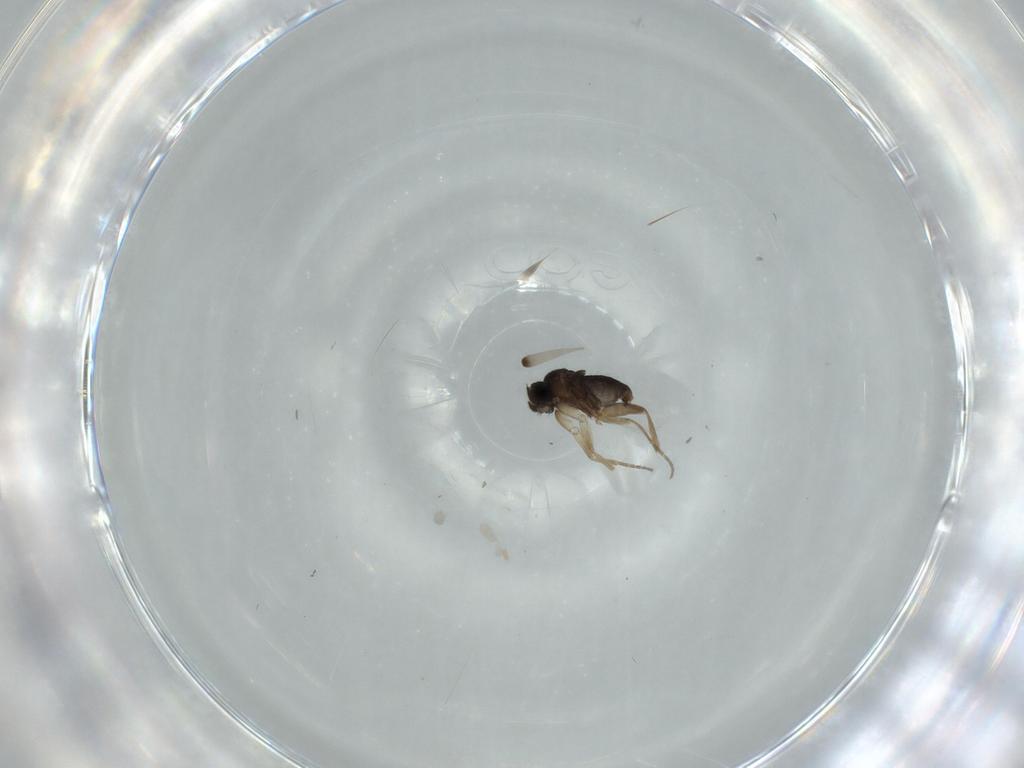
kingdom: Animalia
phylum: Arthropoda
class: Insecta
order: Diptera
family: Phoridae
